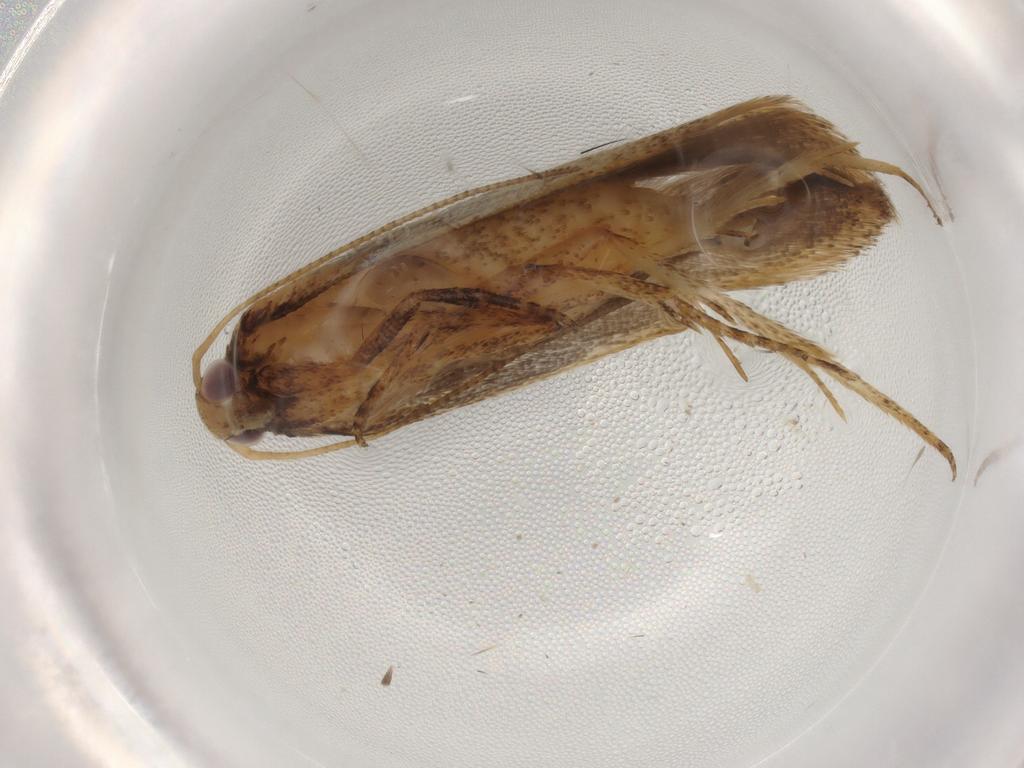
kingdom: Animalia
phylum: Arthropoda
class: Insecta
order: Lepidoptera
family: Gelechiidae
